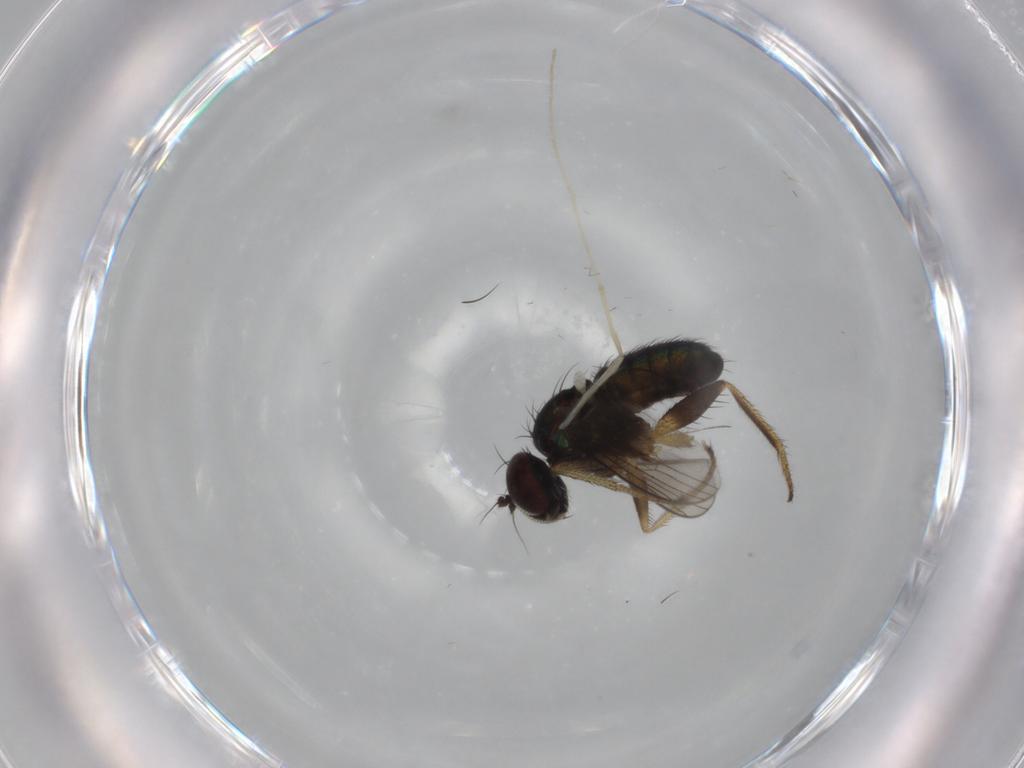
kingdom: Animalia
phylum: Arthropoda
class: Insecta
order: Diptera
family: Dolichopodidae
